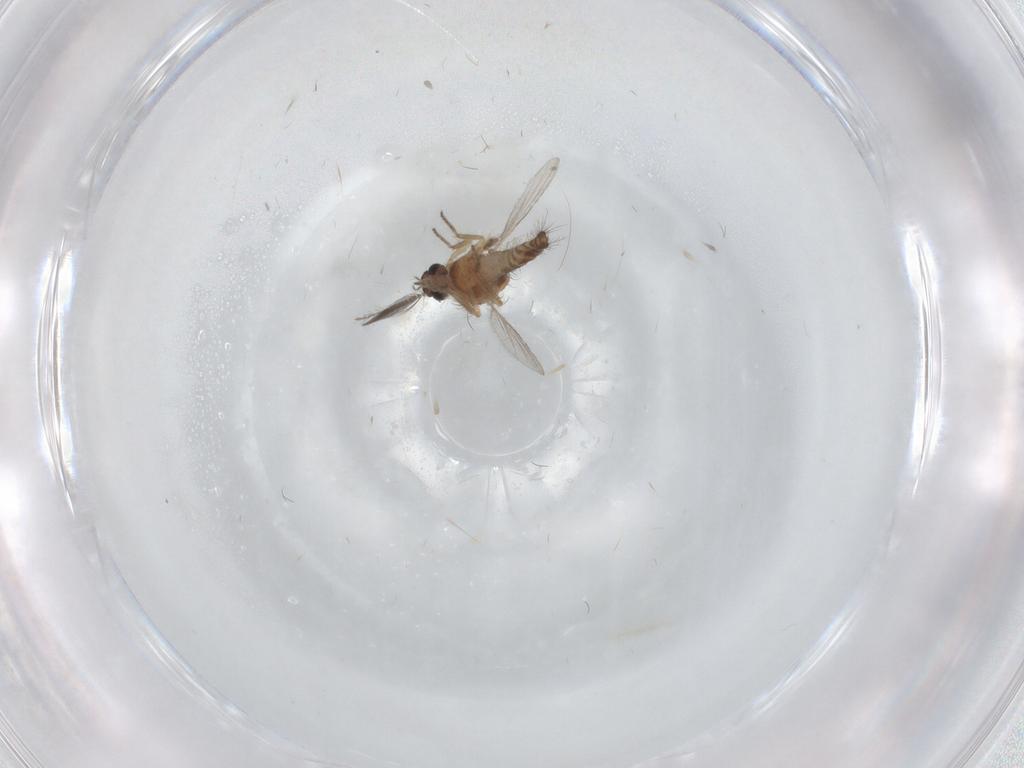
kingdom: Animalia
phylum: Arthropoda
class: Insecta
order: Diptera
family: Ceratopogonidae
